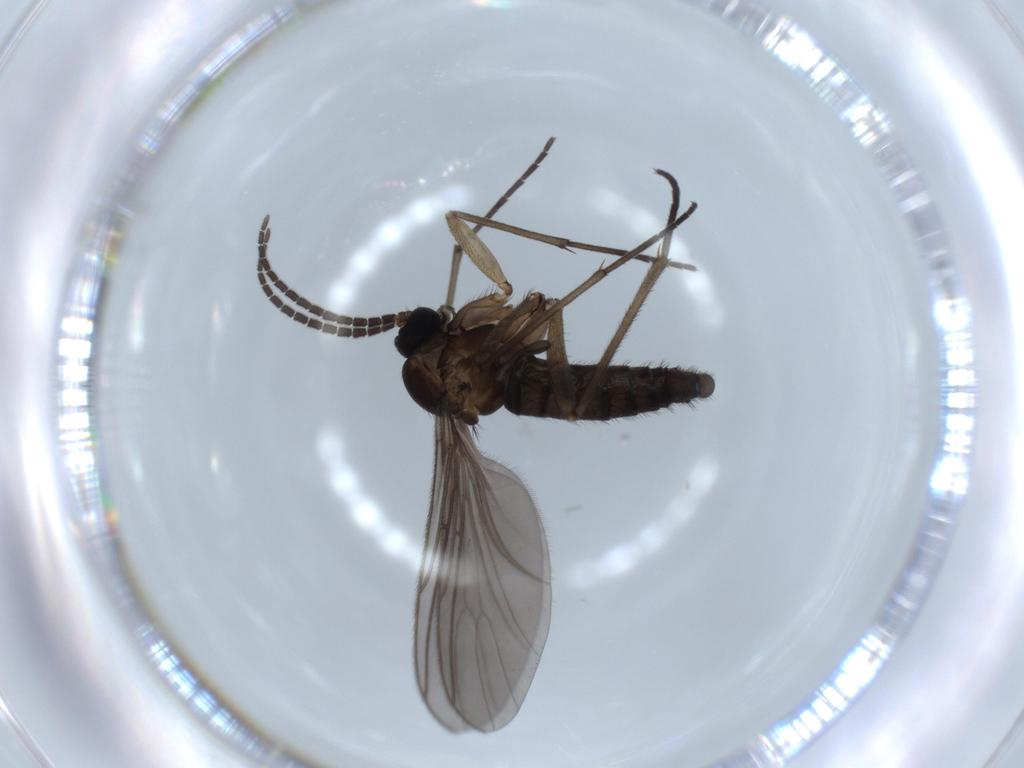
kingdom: Animalia
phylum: Arthropoda
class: Insecta
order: Diptera
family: Sciaridae
